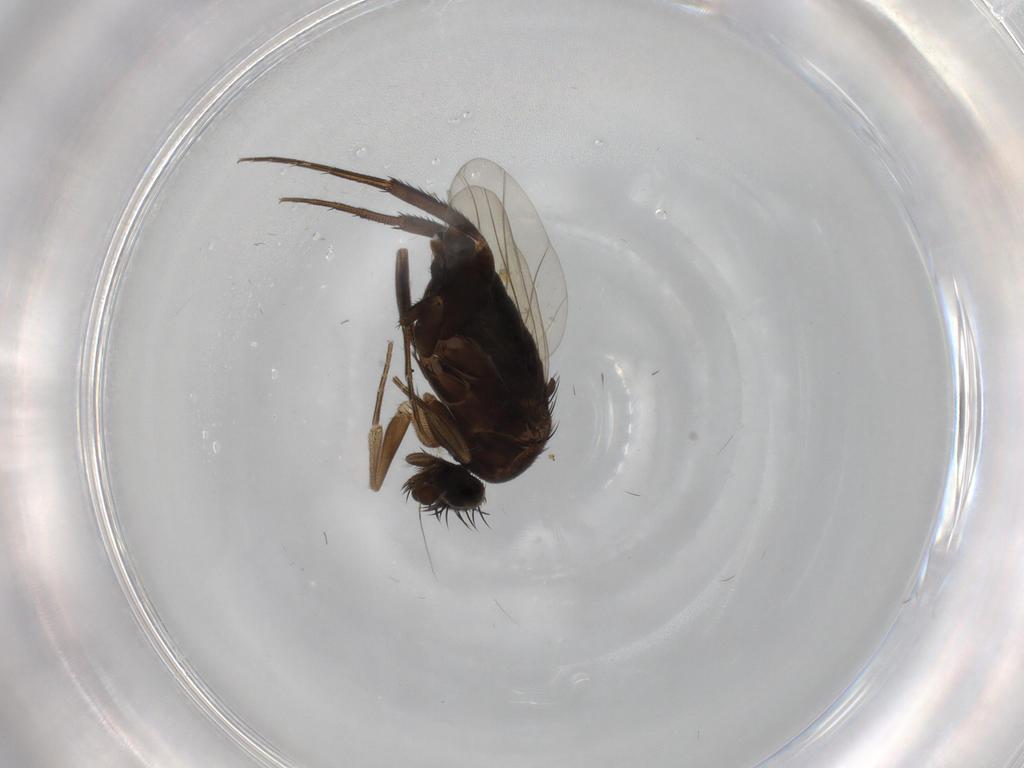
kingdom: Animalia
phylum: Arthropoda
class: Insecta
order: Diptera
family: Phoridae
